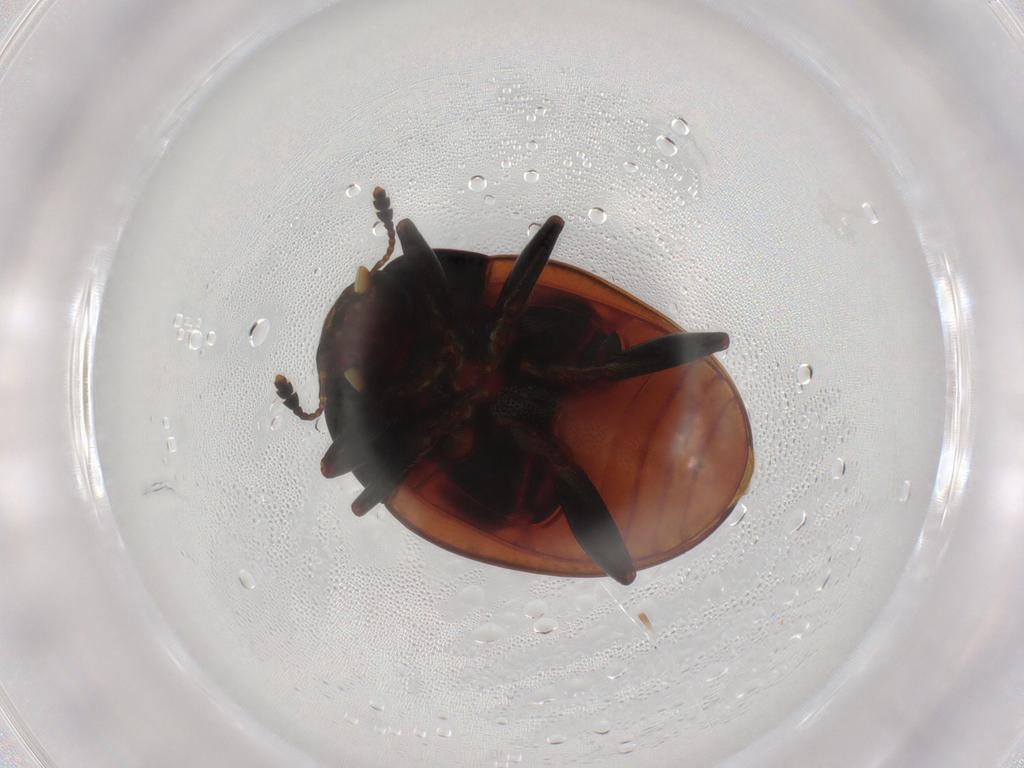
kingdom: Animalia
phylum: Arthropoda
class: Insecta
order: Coleoptera
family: Erotylidae
